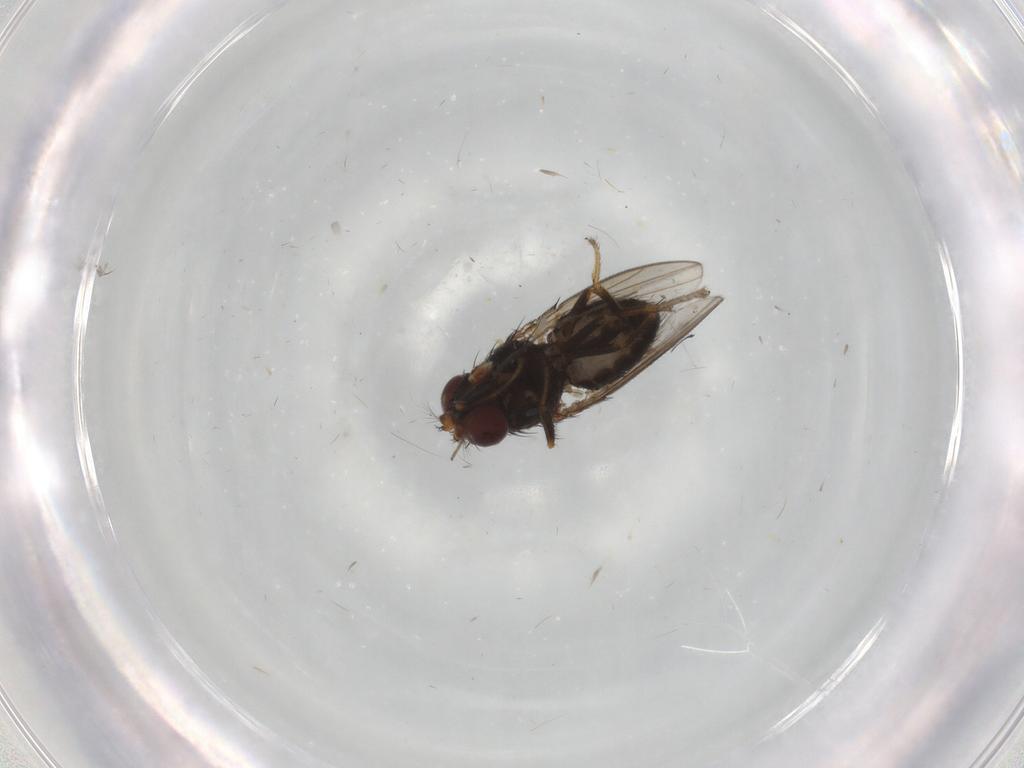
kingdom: Animalia
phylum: Arthropoda
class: Insecta
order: Diptera
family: Ephydridae
